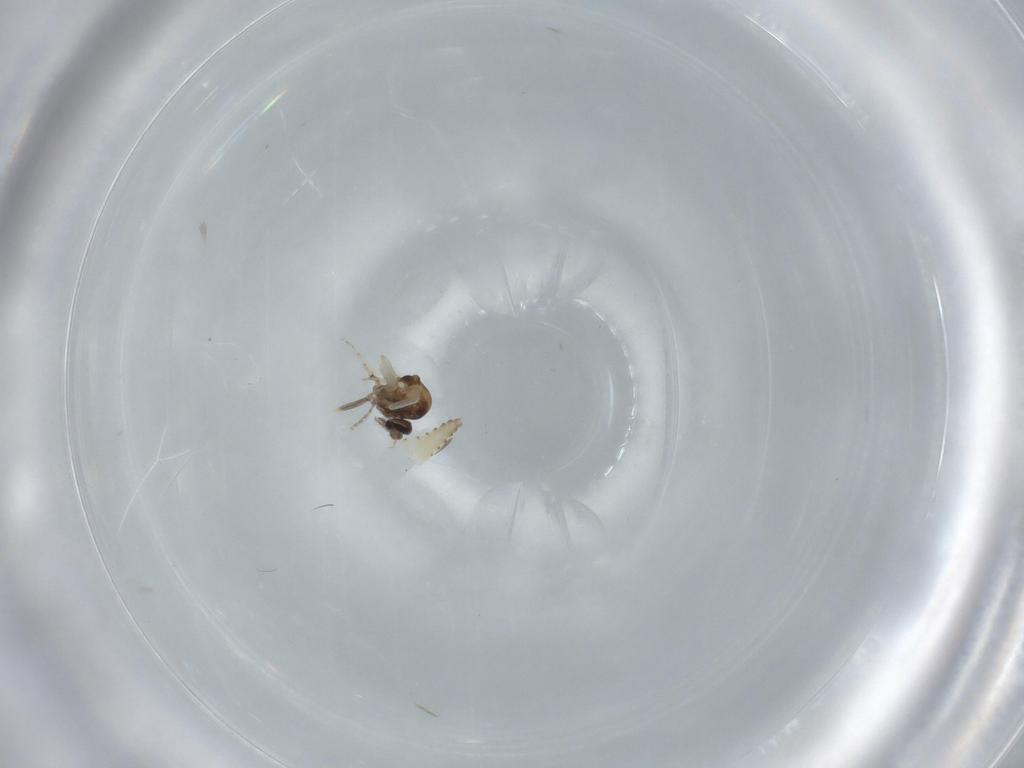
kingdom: Animalia
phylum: Arthropoda
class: Insecta
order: Diptera
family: Ceratopogonidae
